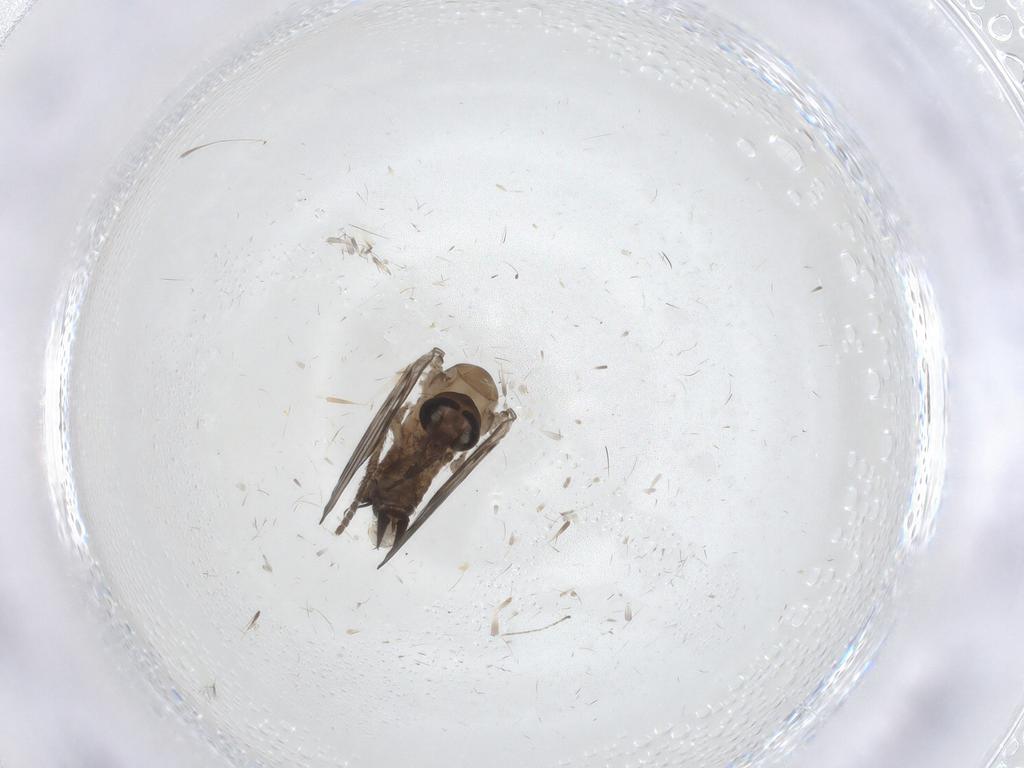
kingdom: Animalia
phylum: Arthropoda
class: Insecta
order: Diptera
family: Psychodidae
